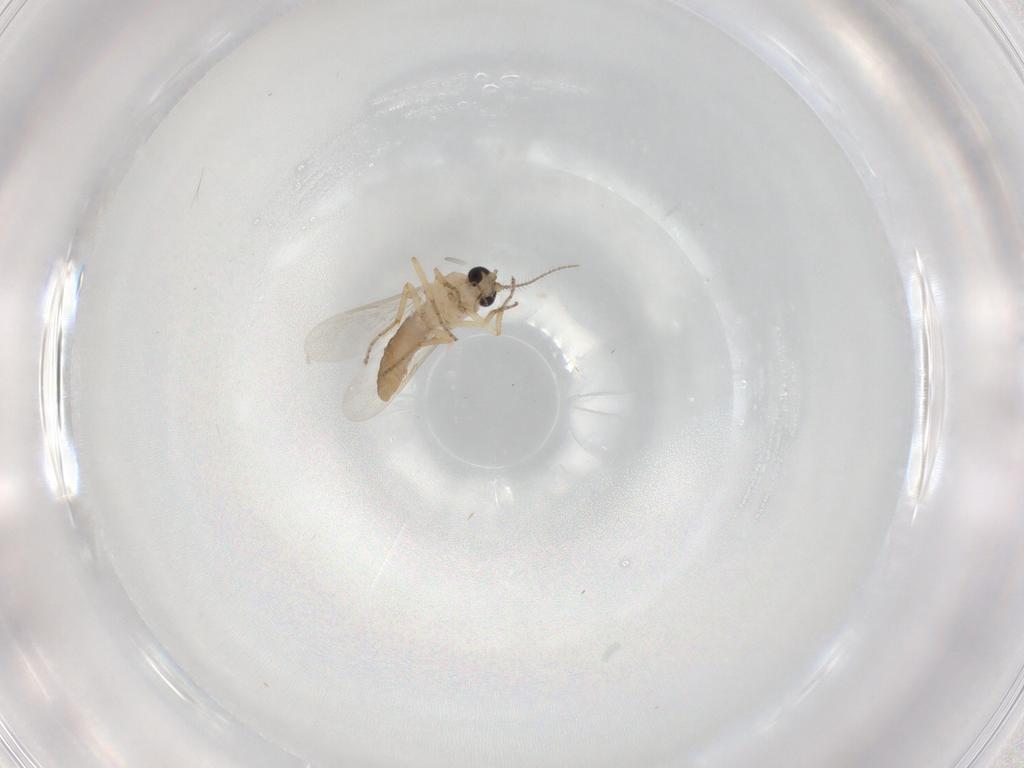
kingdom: Animalia
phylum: Arthropoda
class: Insecta
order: Diptera
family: Ceratopogonidae
